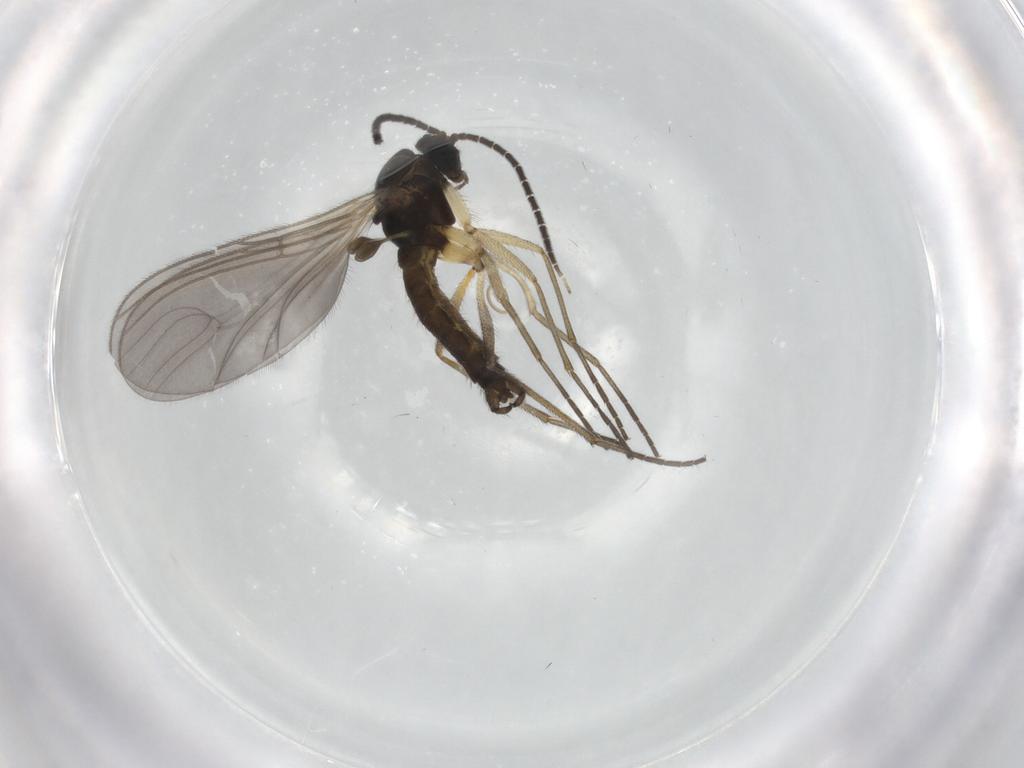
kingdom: Animalia
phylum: Arthropoda
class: Insecta
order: Diptera
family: Sciaridae
